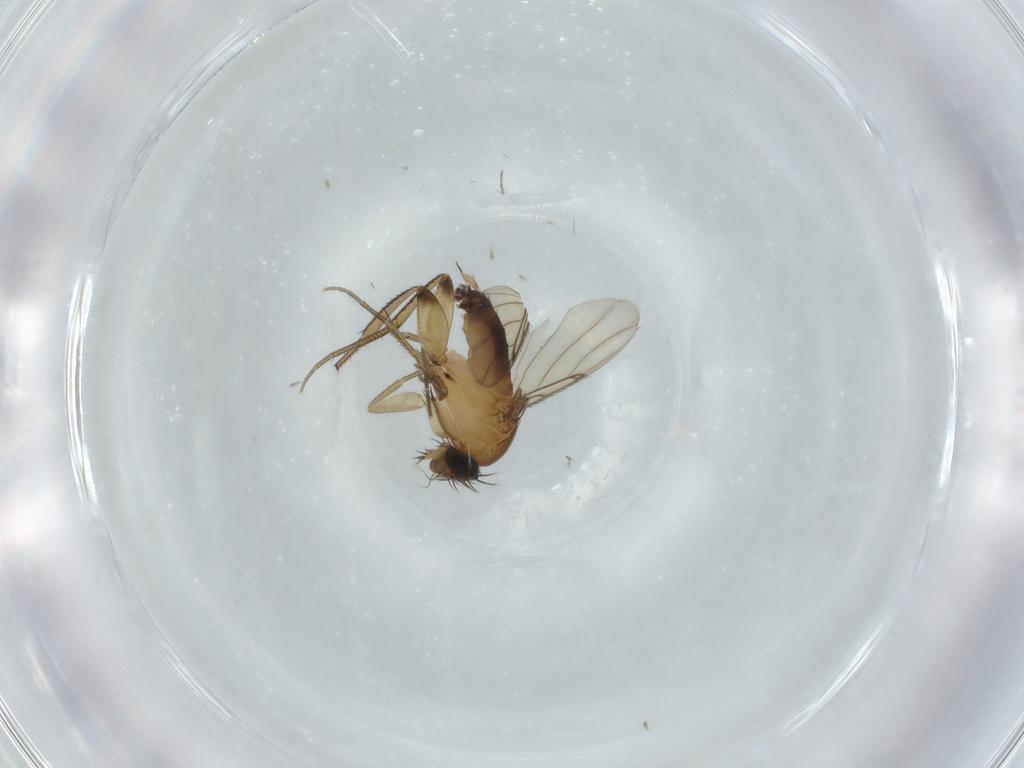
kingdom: Animalia
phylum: Arthropoda
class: Insecta
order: Diptera
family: Phoridae
